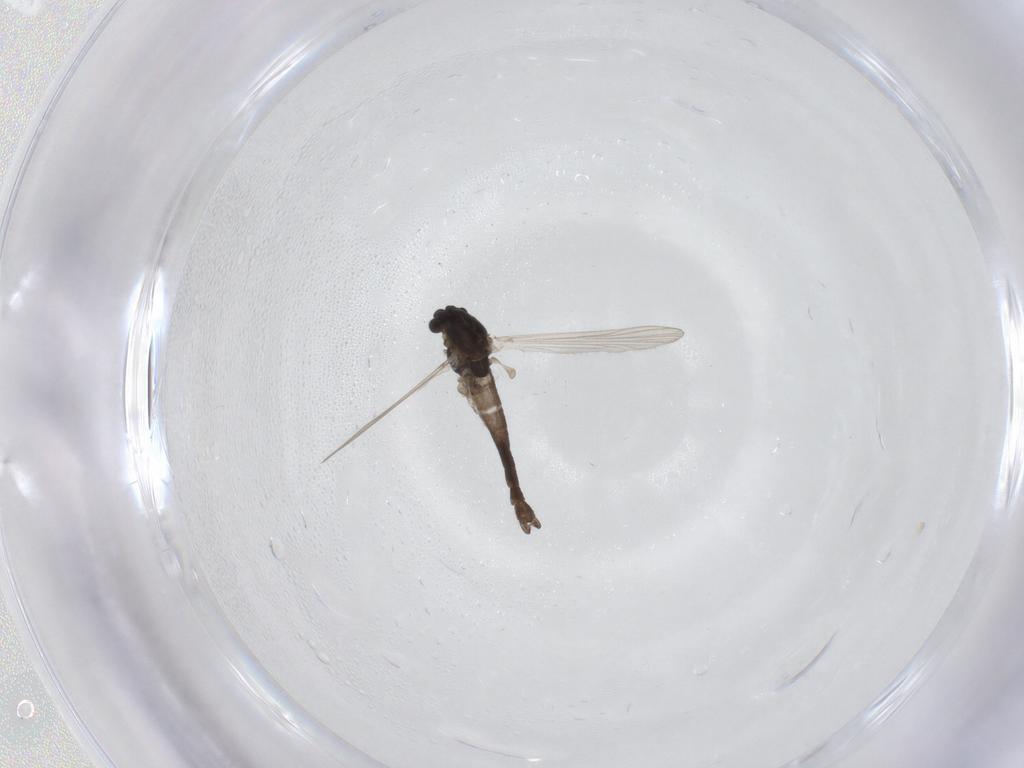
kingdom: Animalia
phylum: Arthropoda
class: Insecta
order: Diptera
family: Chironomidae
